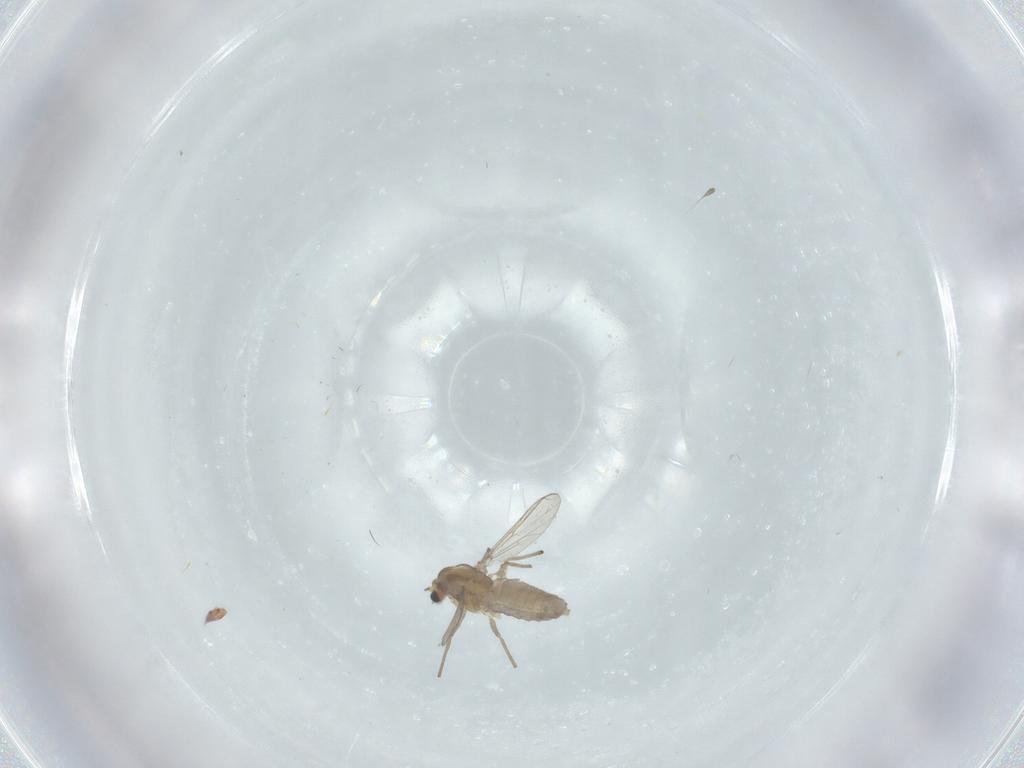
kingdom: Animalia
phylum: Arthropoda
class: Insecta
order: Diptera
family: Chironomidae
